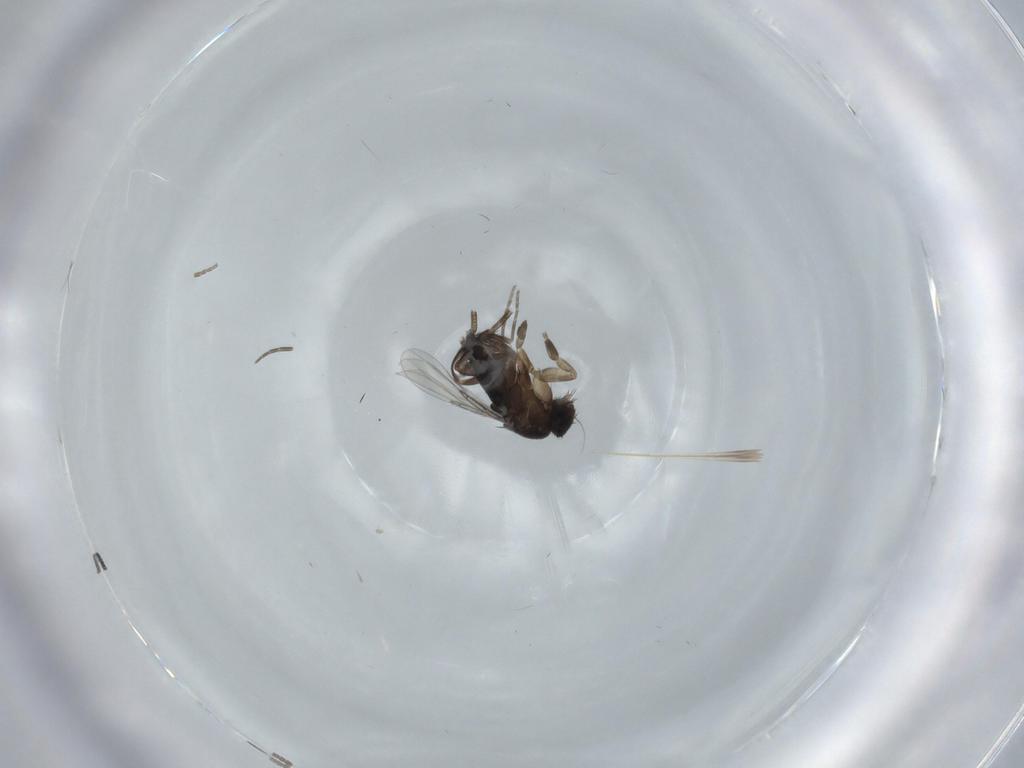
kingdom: Animalia
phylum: Arthropoda
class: Insecta
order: Diptera
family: Phoridae
